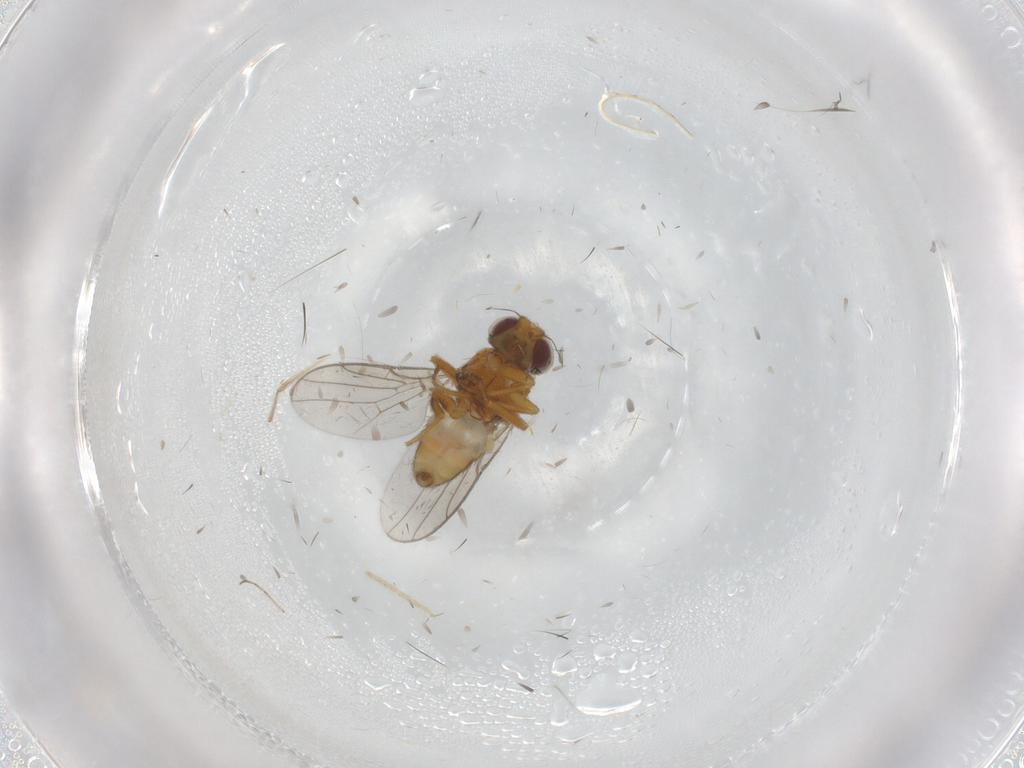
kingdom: Animalia
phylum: Arthropoda
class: Insecta
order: Diptera
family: Chloropidae
